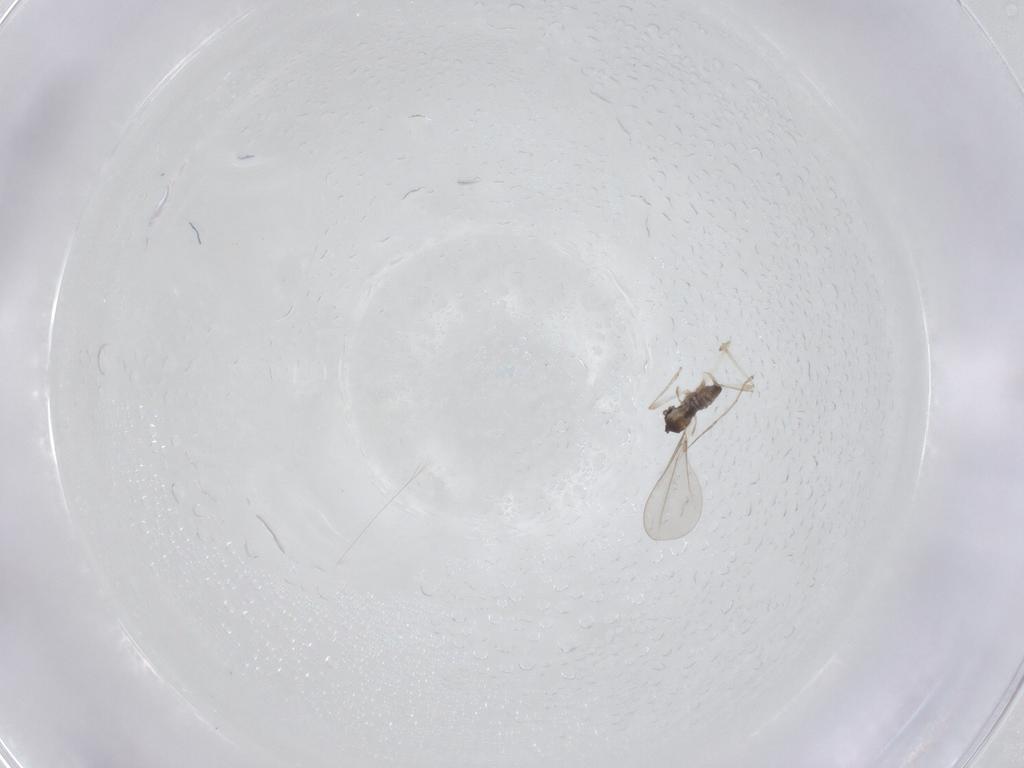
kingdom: Animalia
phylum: Arthropoda
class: Insecta
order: Diptera
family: Cecidomyiidae
